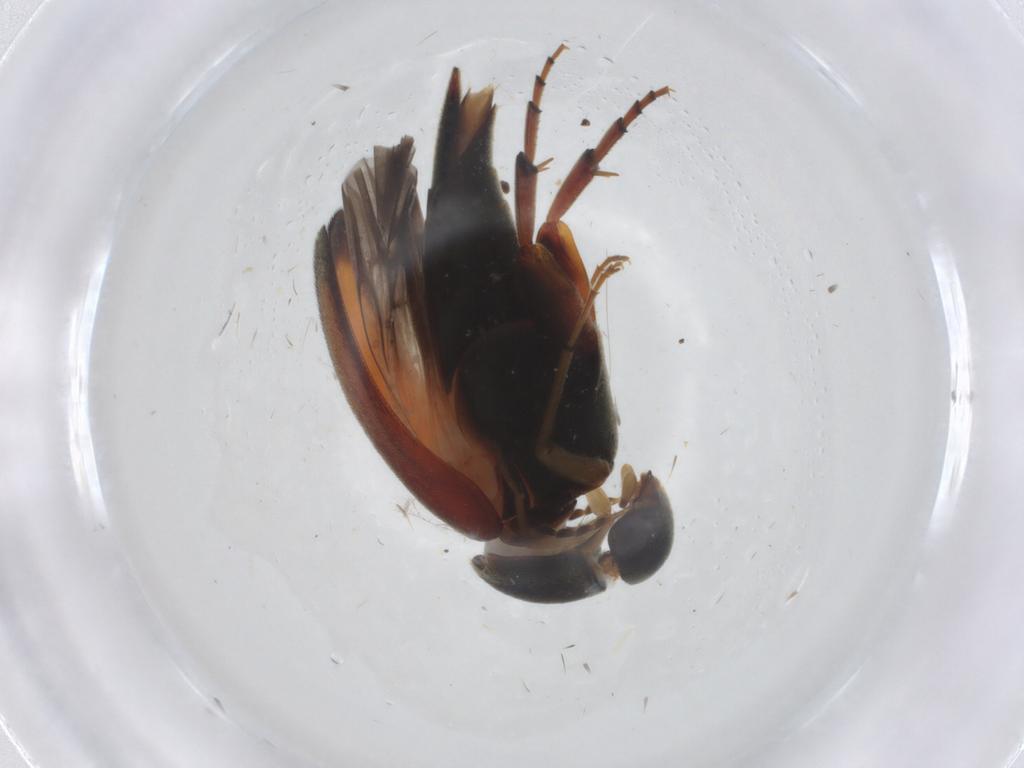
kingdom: Animalia
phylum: Arthropoda
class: Insecta
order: Coleoptera
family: Mordellidae
